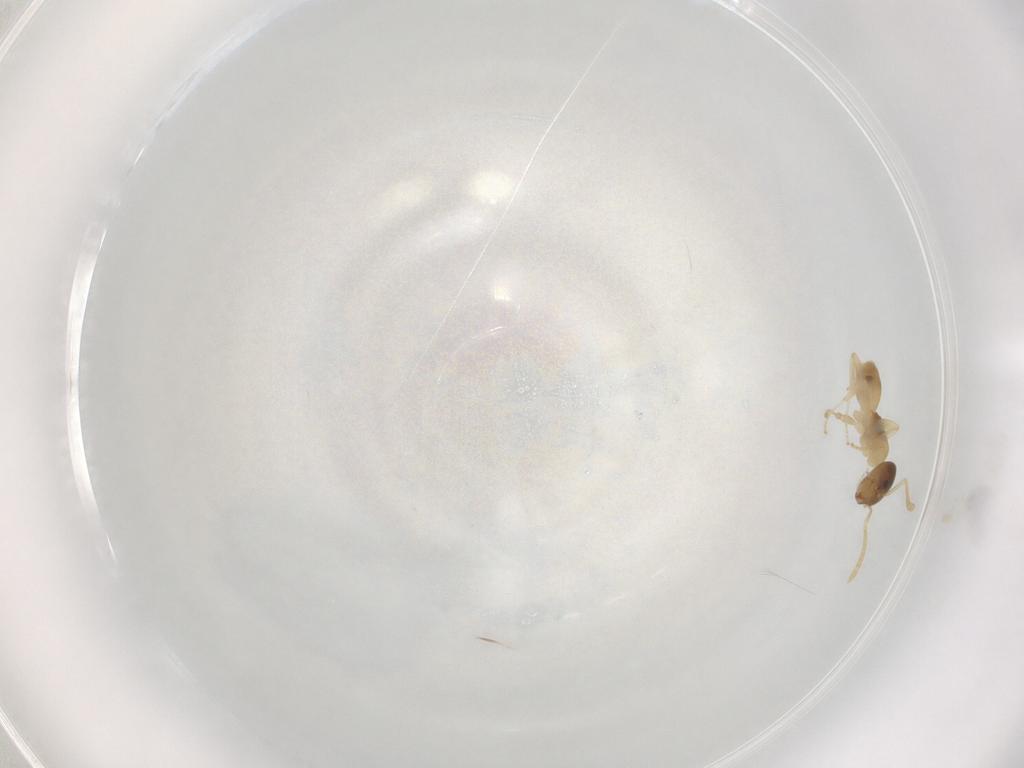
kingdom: Animalia
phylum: Arthropoda
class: Insecta
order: Hymenoptera
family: Formicidae
